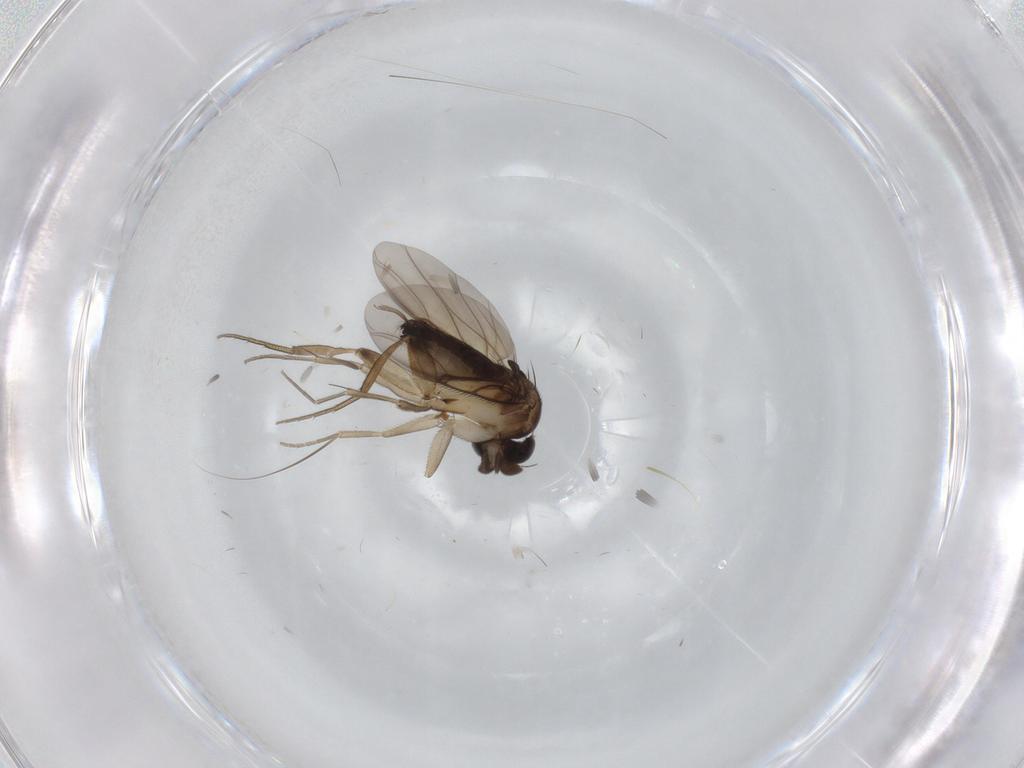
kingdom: Animalia
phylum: Arthropoda
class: Insecta
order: Diptera
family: Phoridae
